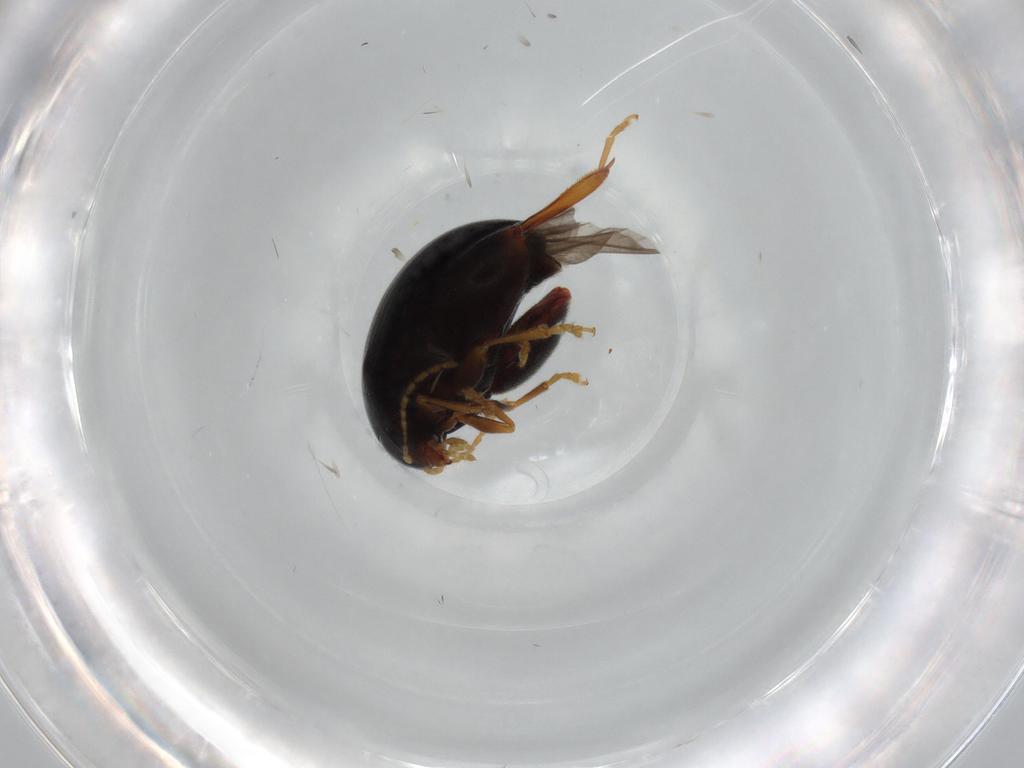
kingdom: Animalia
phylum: Arthropoda
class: Insecta
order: Coleoptera
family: Chrysomelidae
